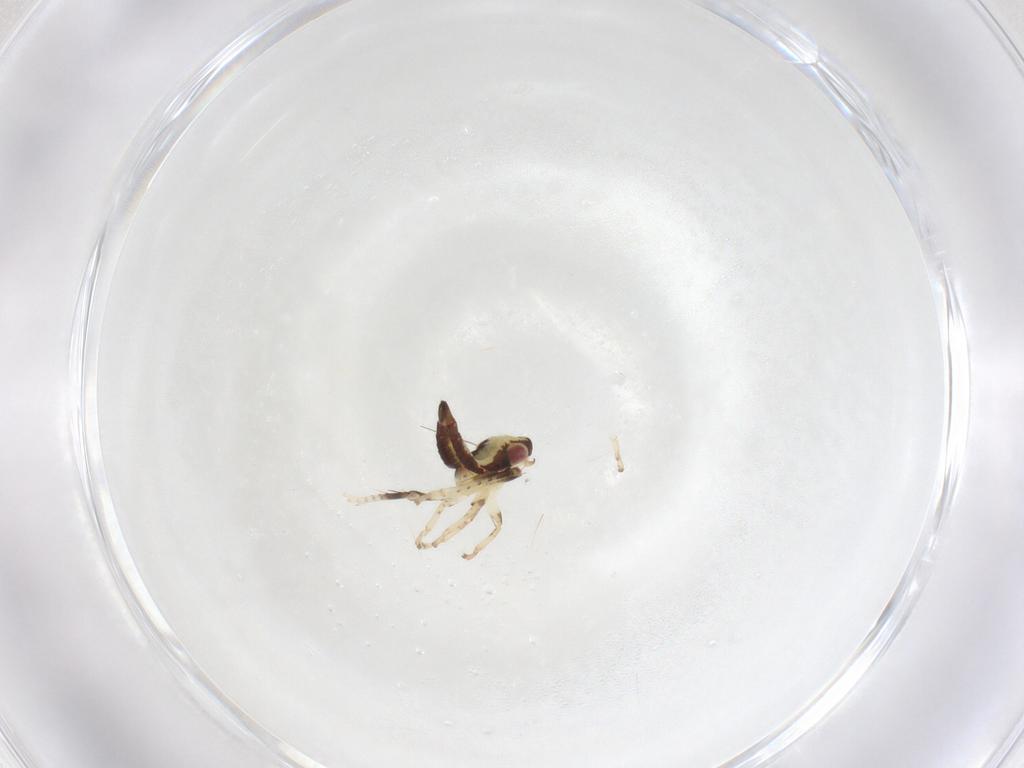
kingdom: Animalia
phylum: Arthropoda
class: Insecta
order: Hemiptera
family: Cicadellidae
